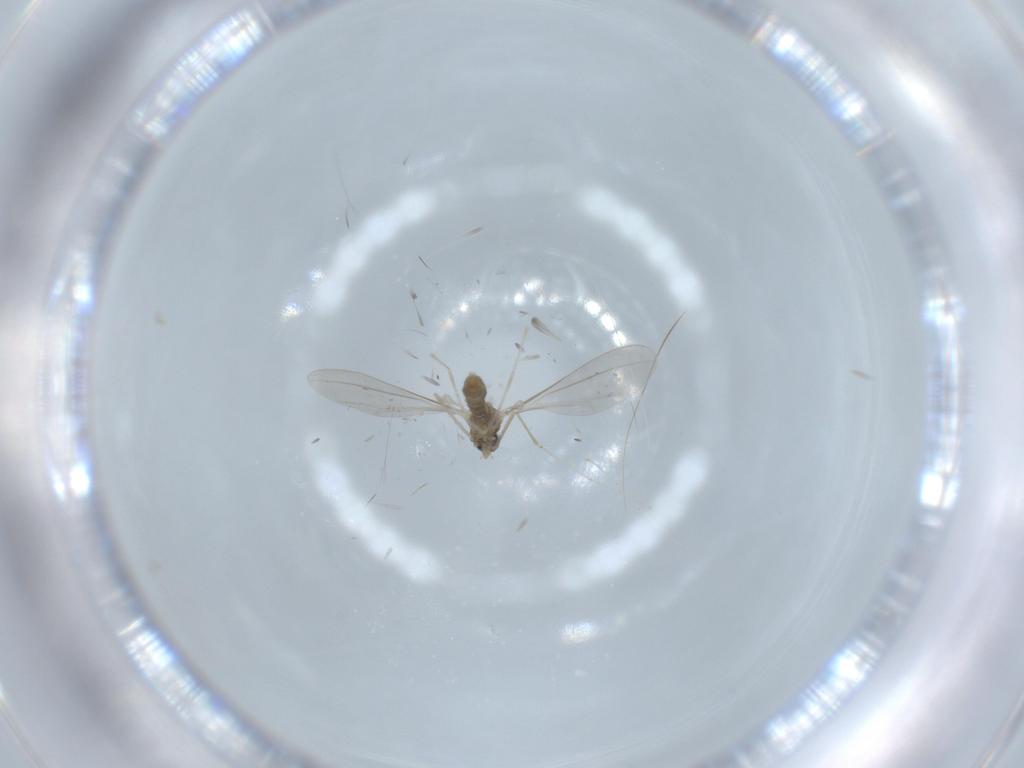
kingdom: Animalia
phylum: Arthropoda
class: Insecta
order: Diptera
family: Cecidomyiidae
